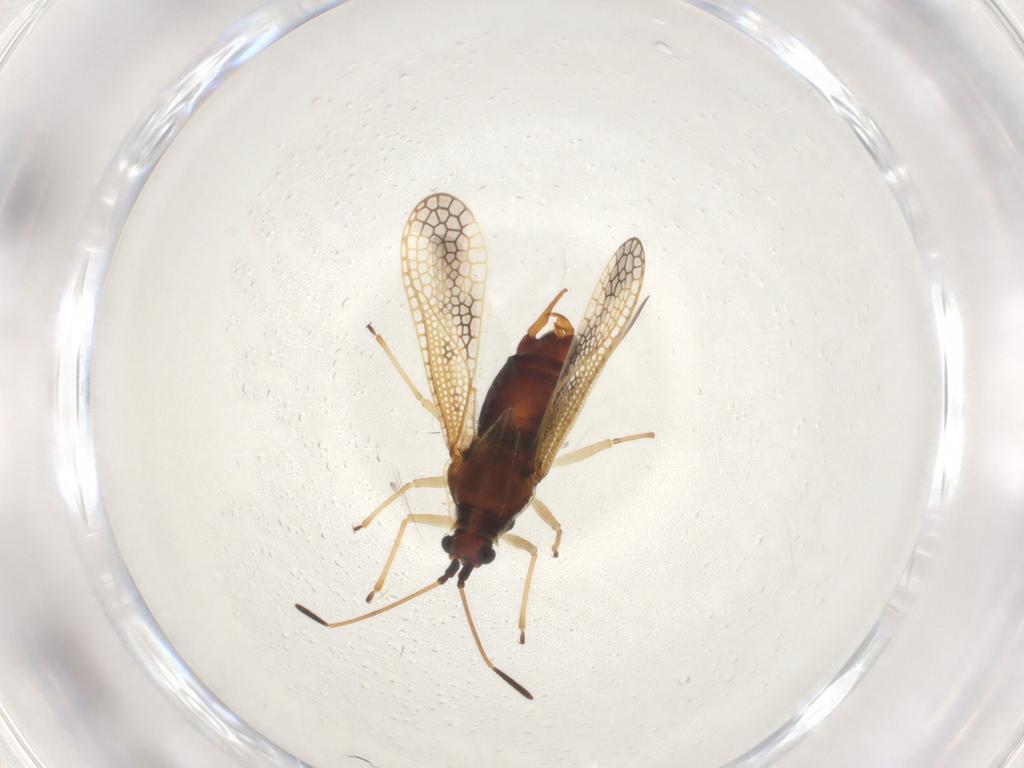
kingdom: Animalia
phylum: Arthropoda
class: Insecta
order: Hemiptera
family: Tingidae
